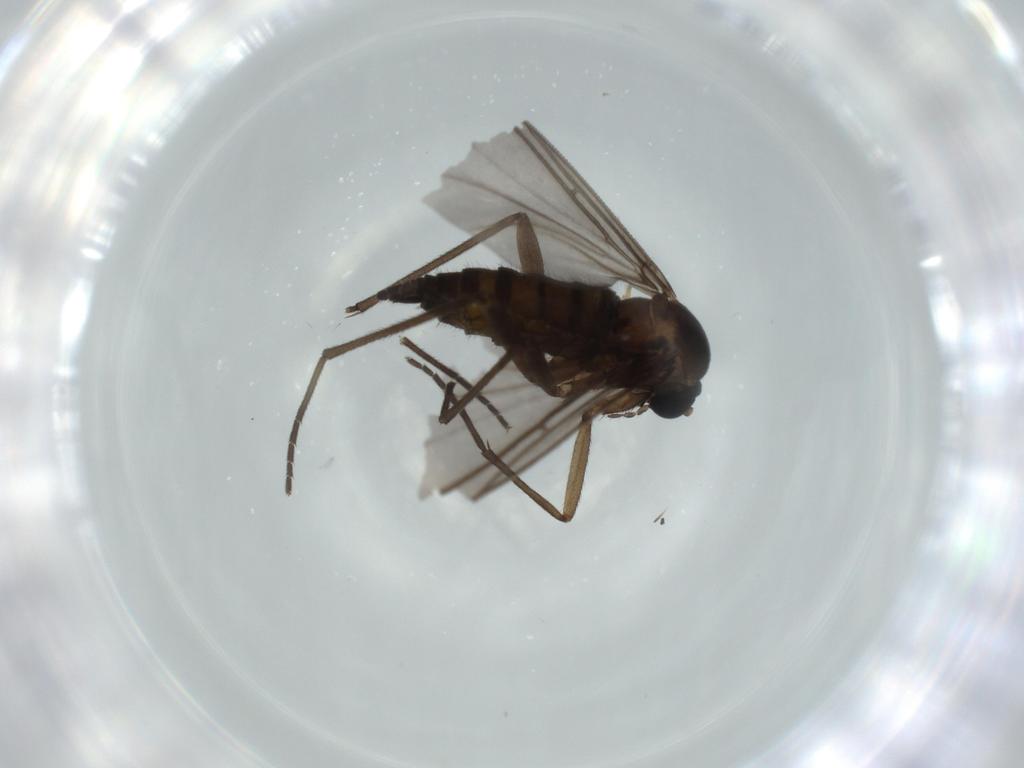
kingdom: Animalia
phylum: Arthropoda
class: Insecta
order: Diptera
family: Sciaridae
